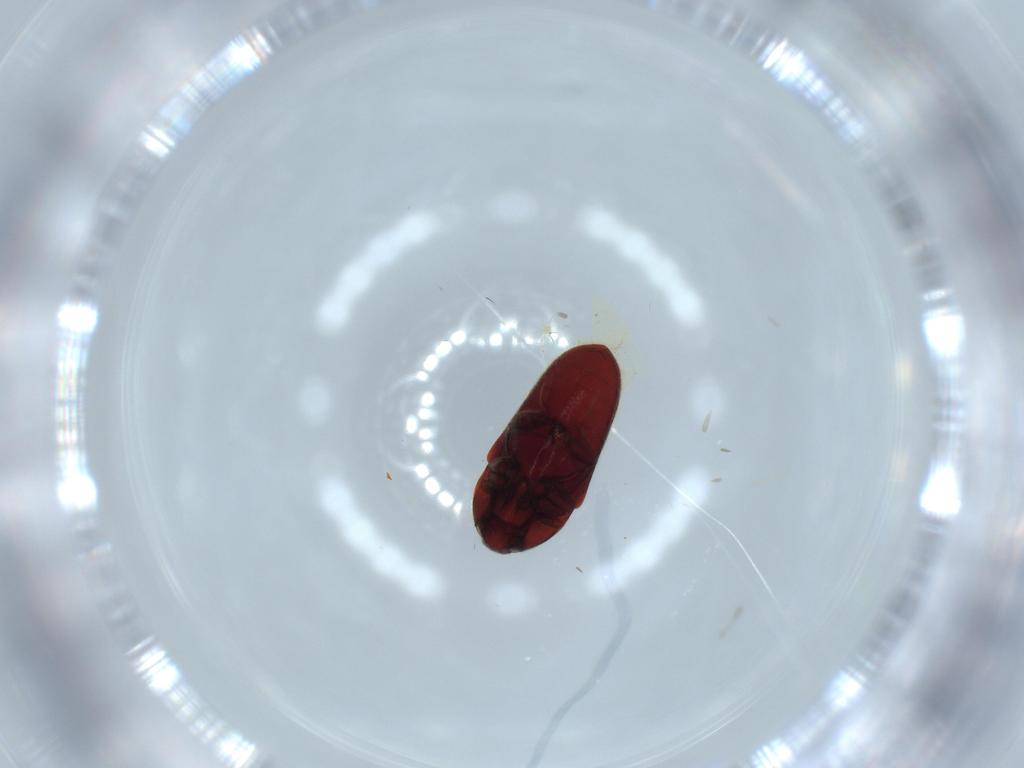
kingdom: Animalia
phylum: Arthropoda
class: Insecta
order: Coleoptera
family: Throscidae
